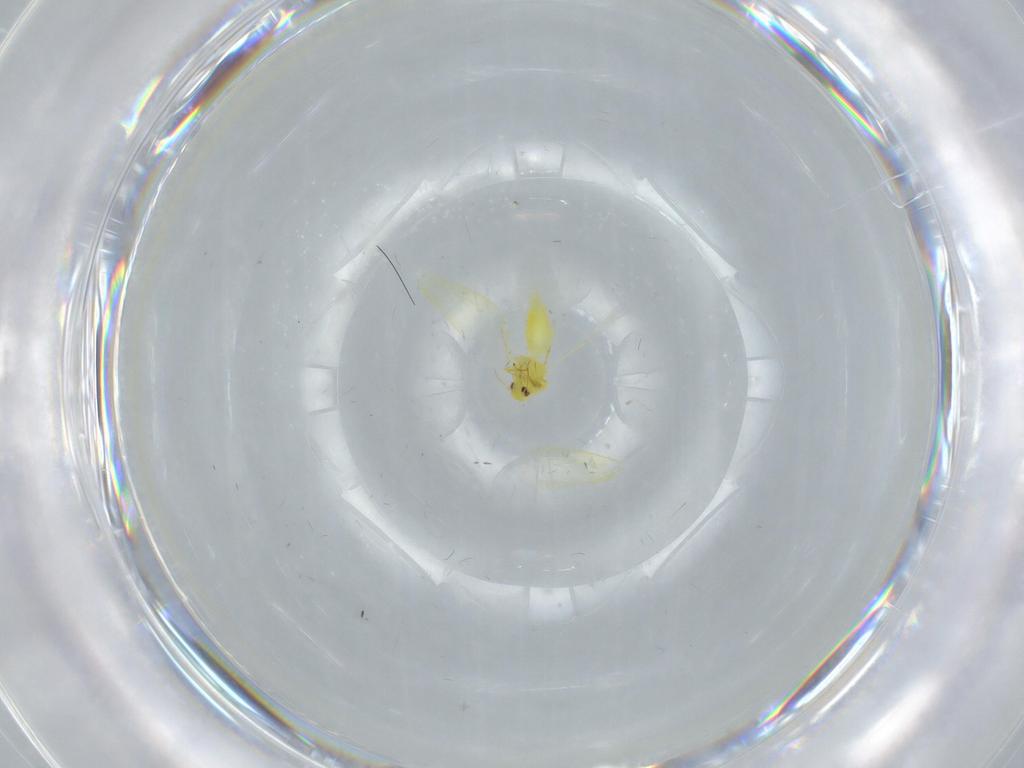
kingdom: Animalia
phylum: Arthropoda
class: Insecta
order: Hemiptera
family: Aleyrodidae
